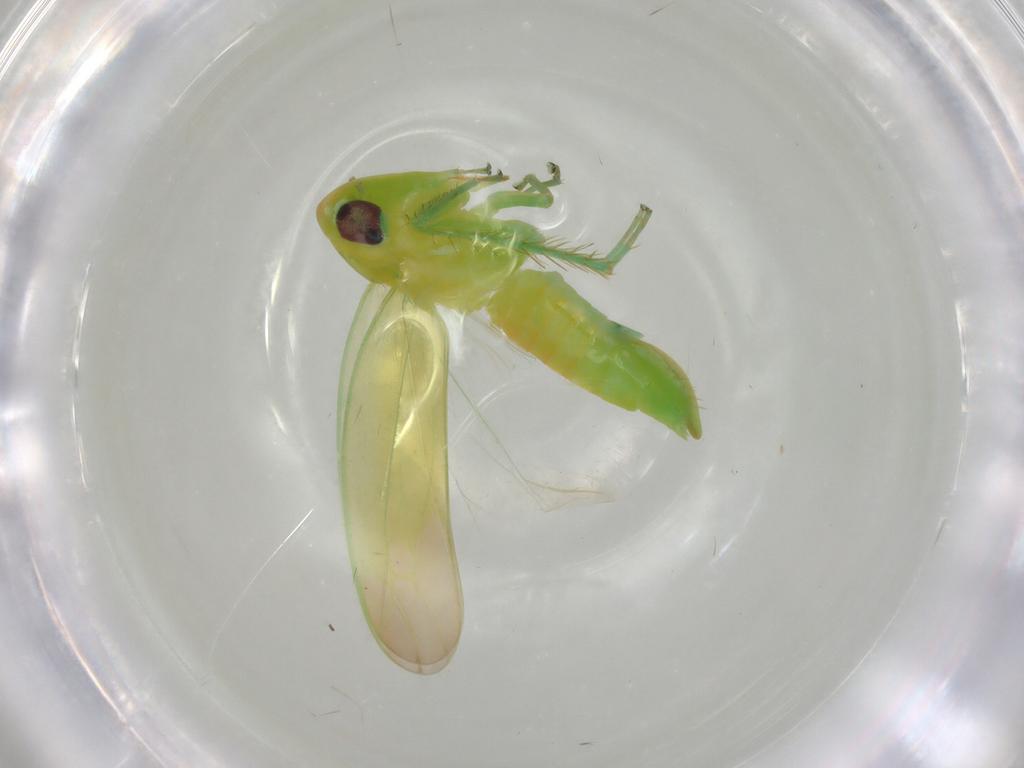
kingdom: Animalia
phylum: Arthropoda
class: Insecta
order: Hemiptera
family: Cicadellidae
